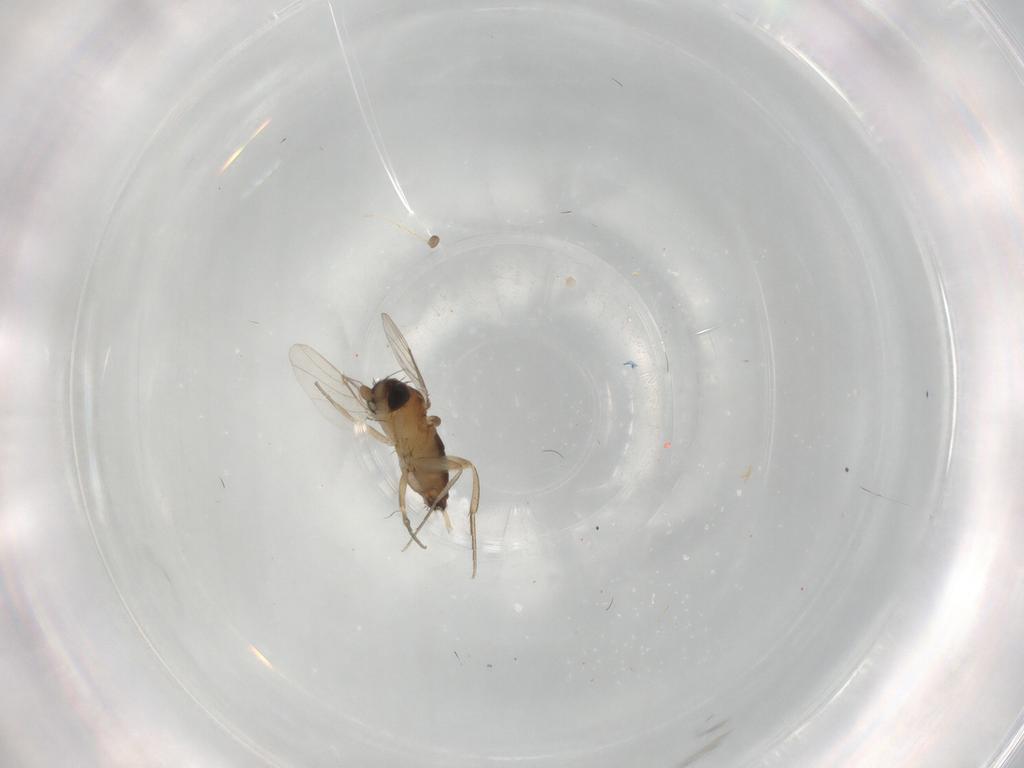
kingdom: Animalia
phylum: Arthropoda
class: Insecta
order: Diptera
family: Phoridae
